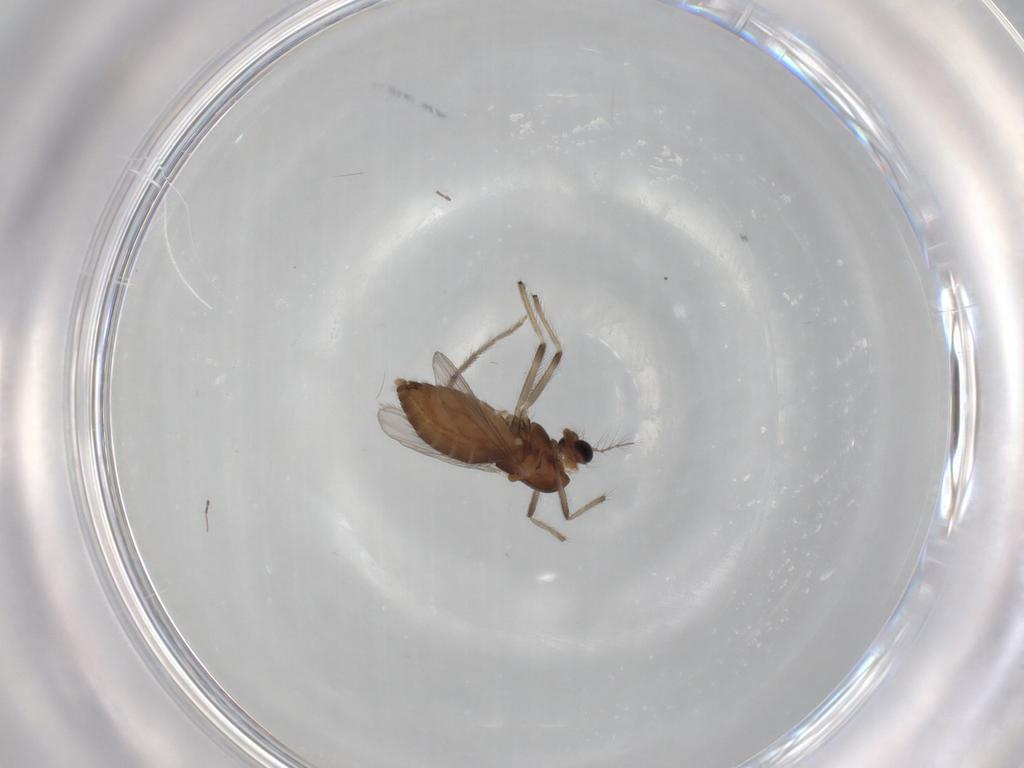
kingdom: Animalia
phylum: Arthropoda
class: Insecta
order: Diptera
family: Chironomidae
